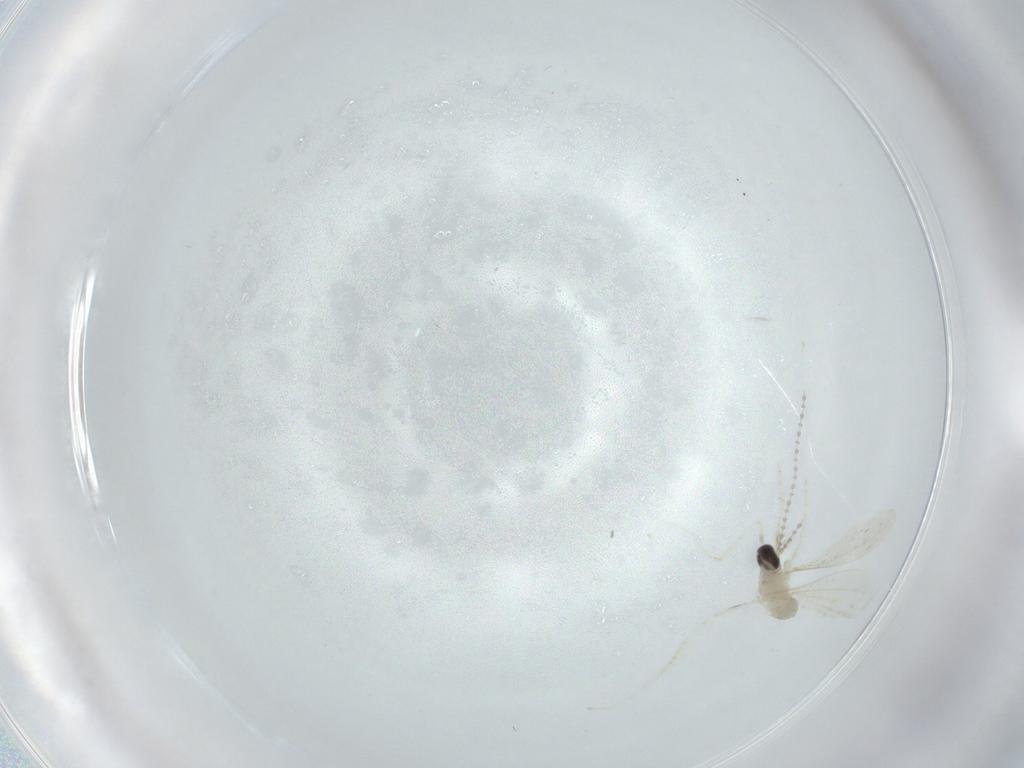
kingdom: Animalia
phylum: Arthropoda
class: Insecta
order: Diptera
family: Cecidomyiidae
